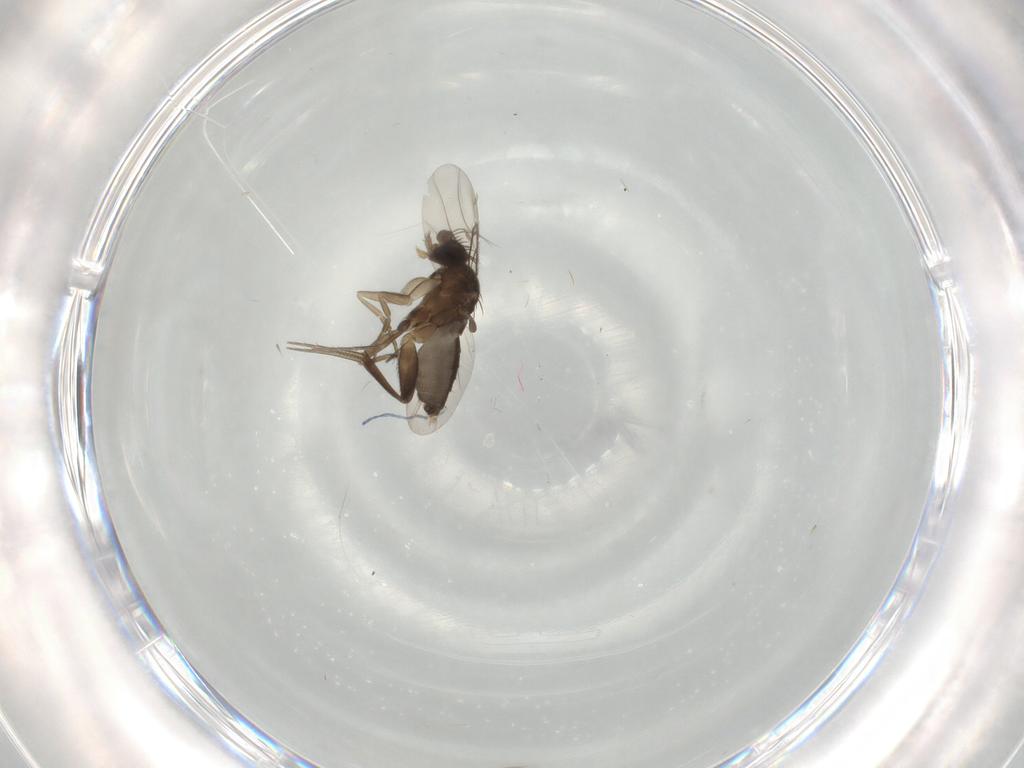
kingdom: Animalia
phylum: Arthropoda
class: Insecta
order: Diptera
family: Phoridae
